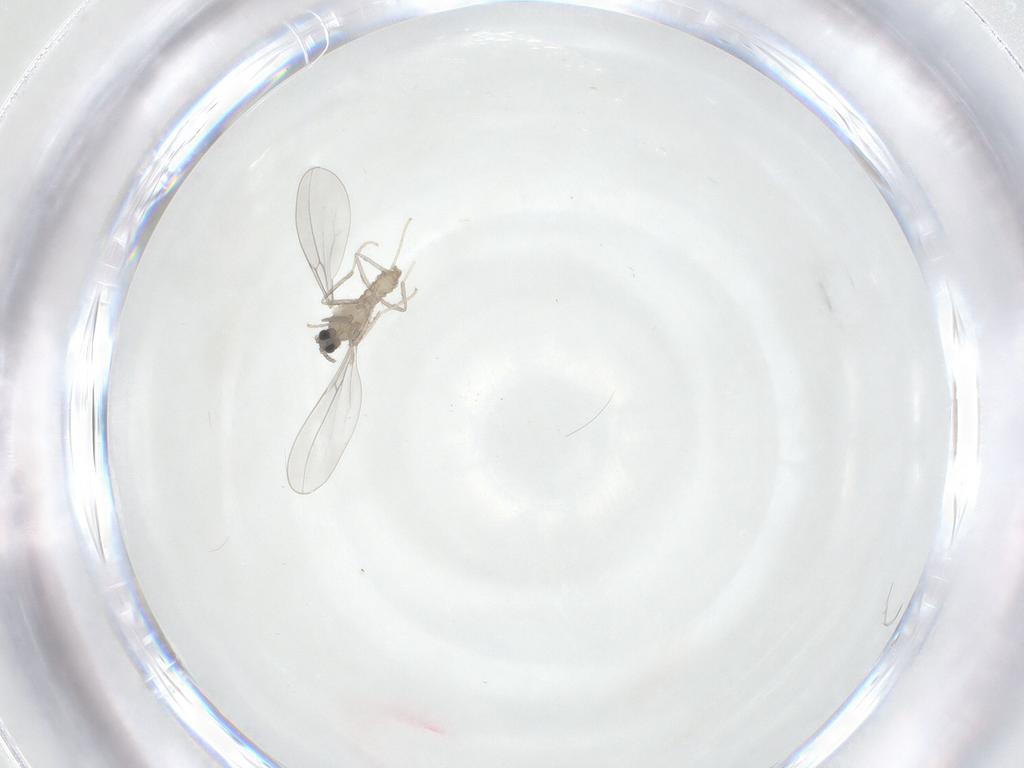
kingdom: Animalia
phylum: Arthropoda
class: Insecta
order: Diptera
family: Cecidomyiidae
